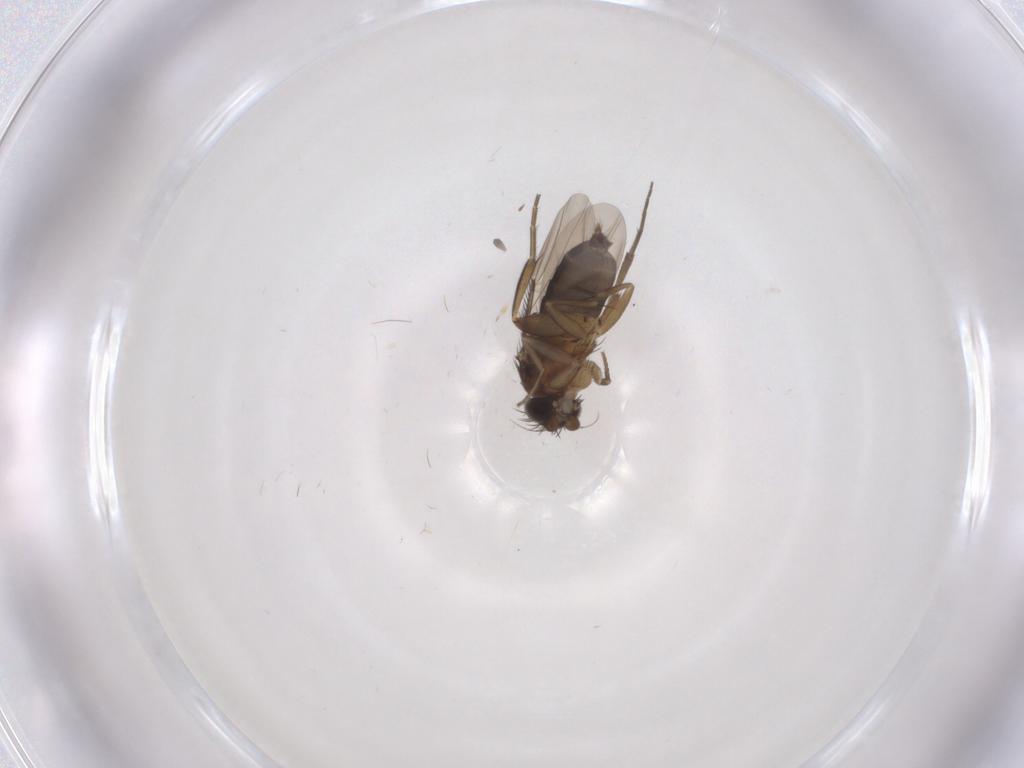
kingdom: Animalia
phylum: Arthropoda
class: Insecta
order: Diptera
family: Phoridae
